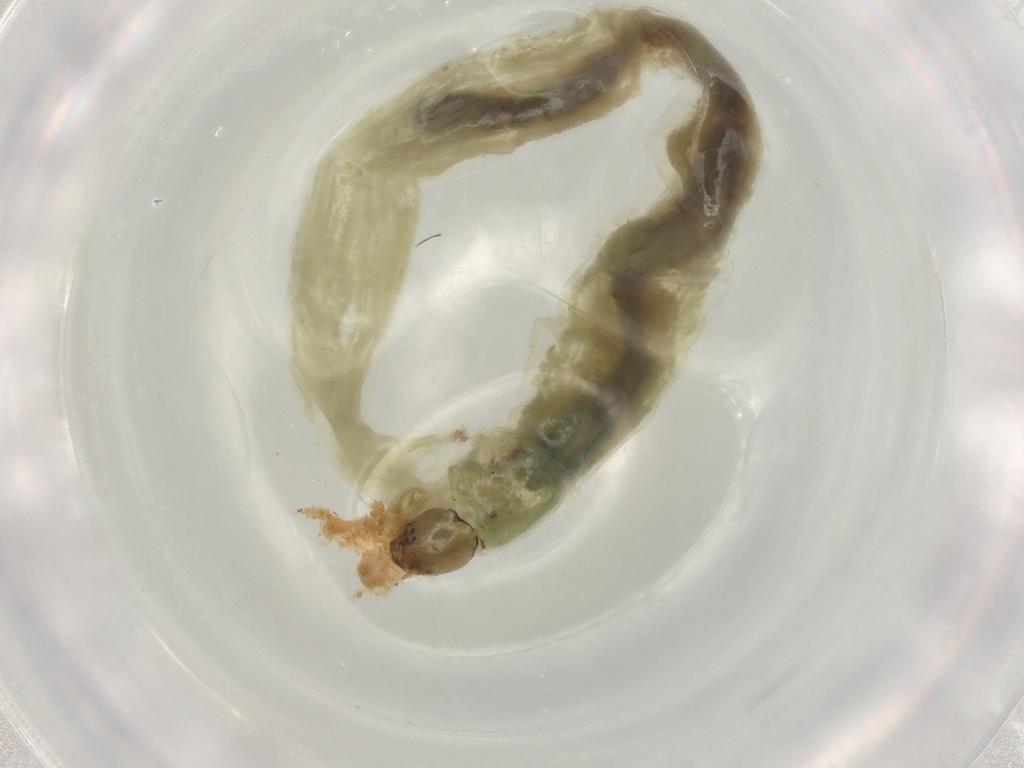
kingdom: Animalia
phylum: Arthropoda
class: Insecta
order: Diptera
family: Chironomidae
